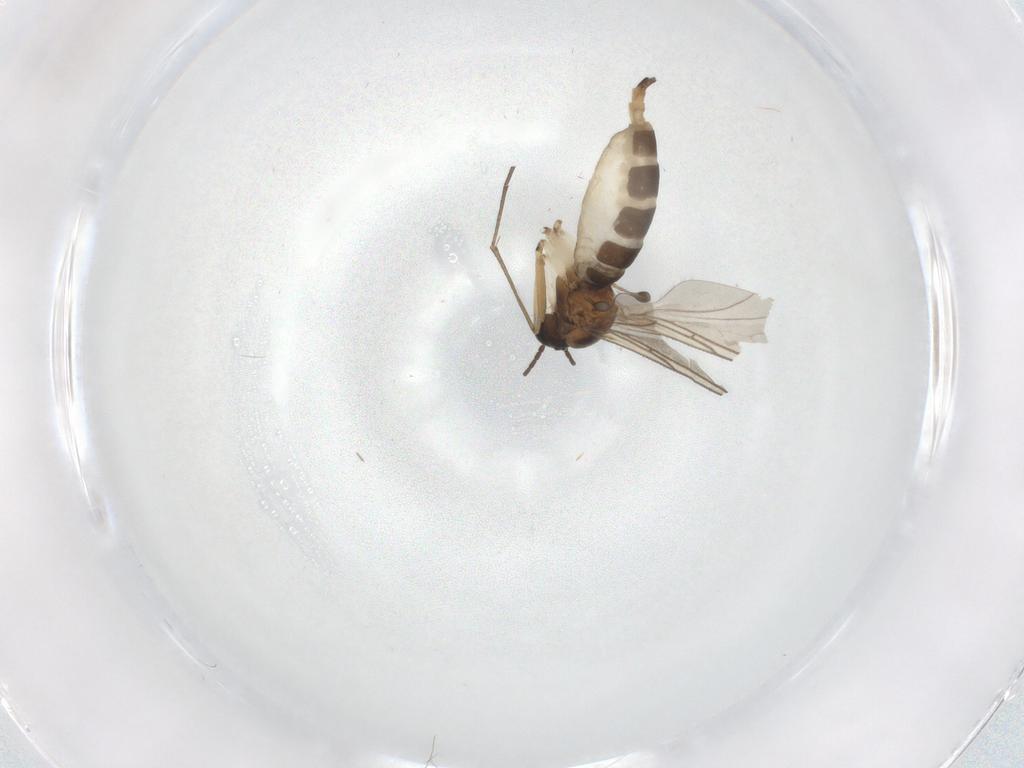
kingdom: Animalia
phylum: Arthropoda
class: Insecta
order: Diptera
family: Sciaridae
